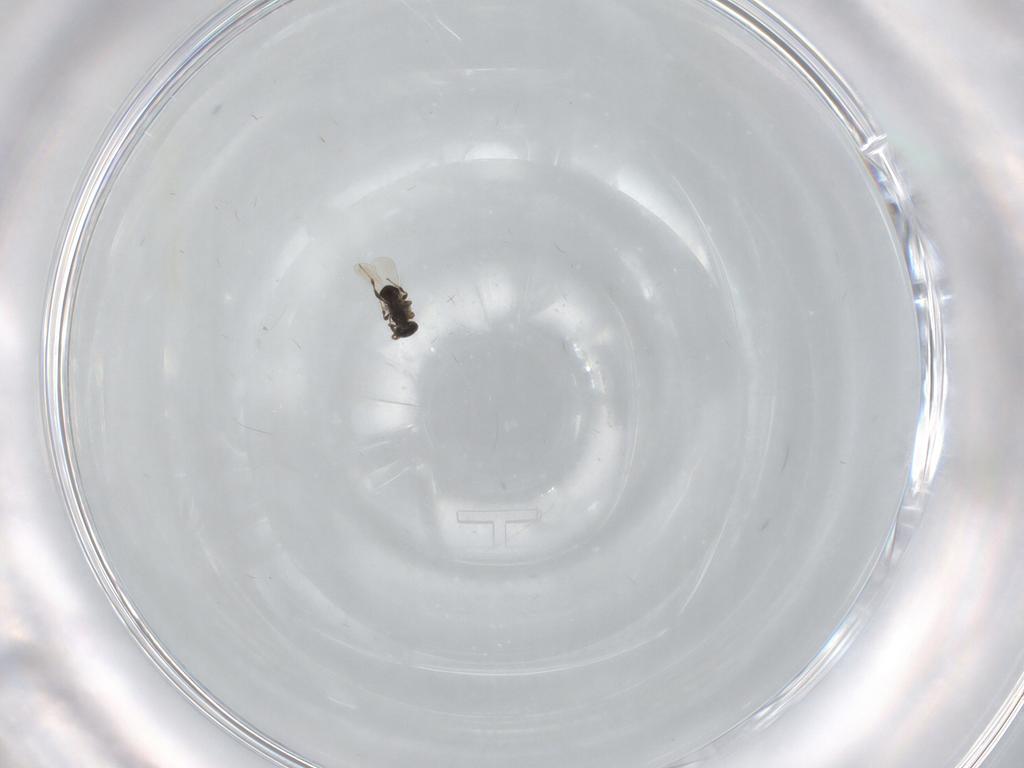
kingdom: Animalia
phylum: Arthropoda
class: Insecta
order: Hymenoptera
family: Platygastridae
